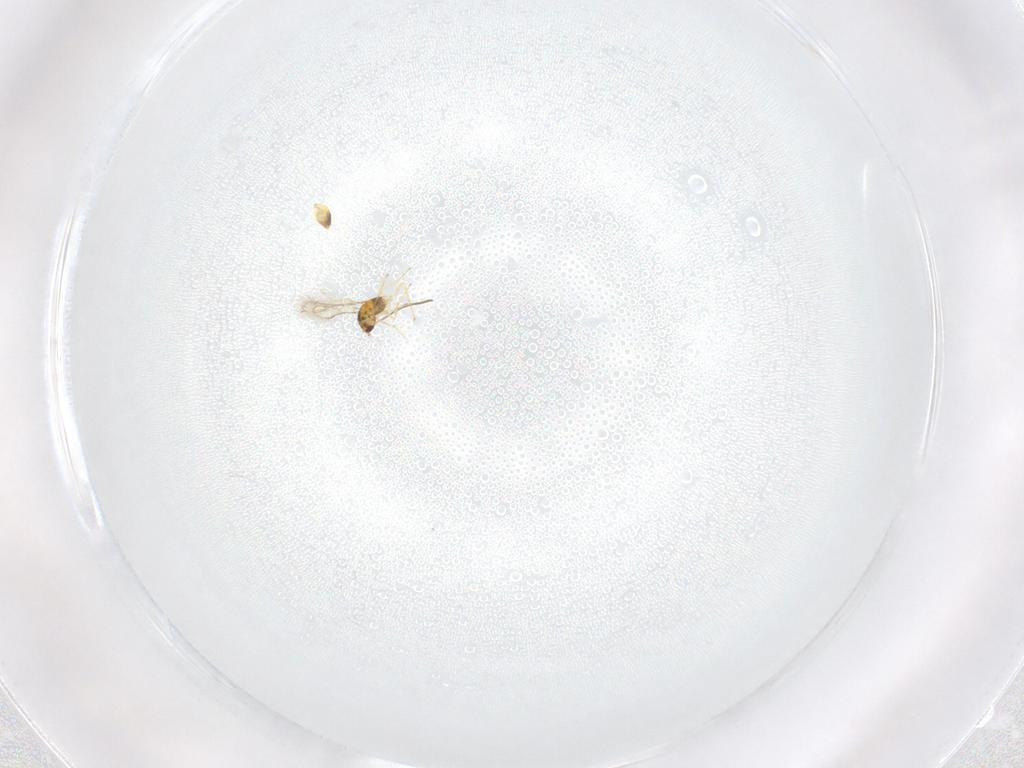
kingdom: Animalia
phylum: Arthropoda
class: Insecta
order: Hymenoptera
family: Mymaridae
